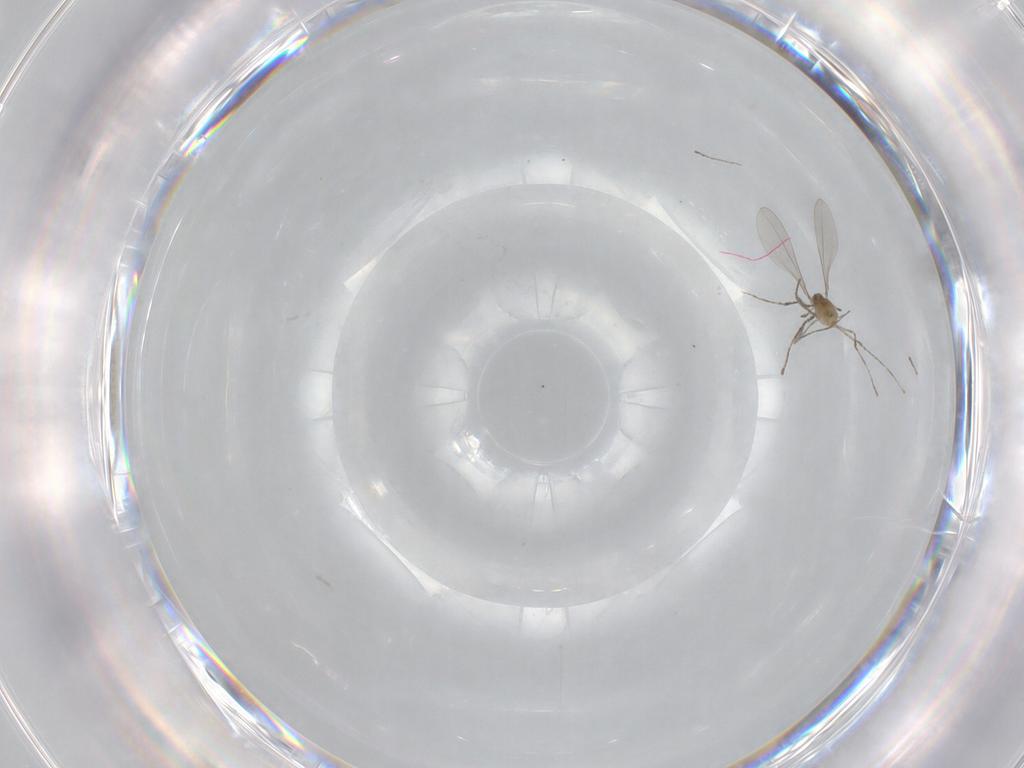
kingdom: Animalia
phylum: Arthropoda
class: Insecta
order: Diptera
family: Cecidomyiidae
